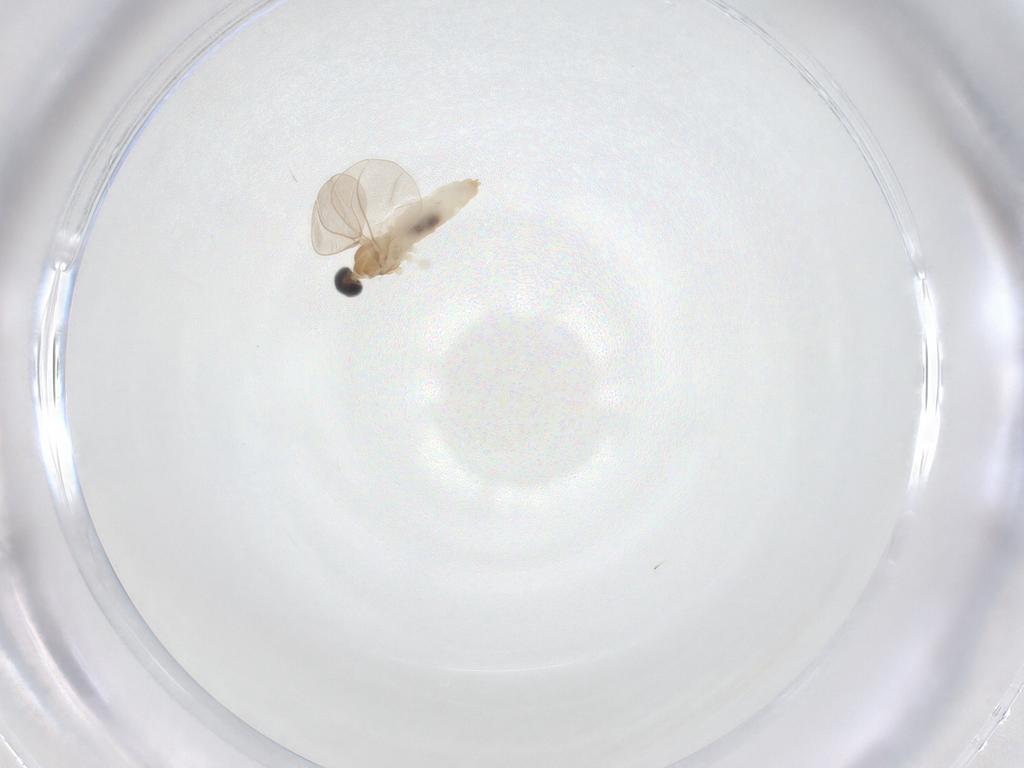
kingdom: Animalia
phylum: Arthropoda
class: Insecta
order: Diptera
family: Cecidomyiidae
